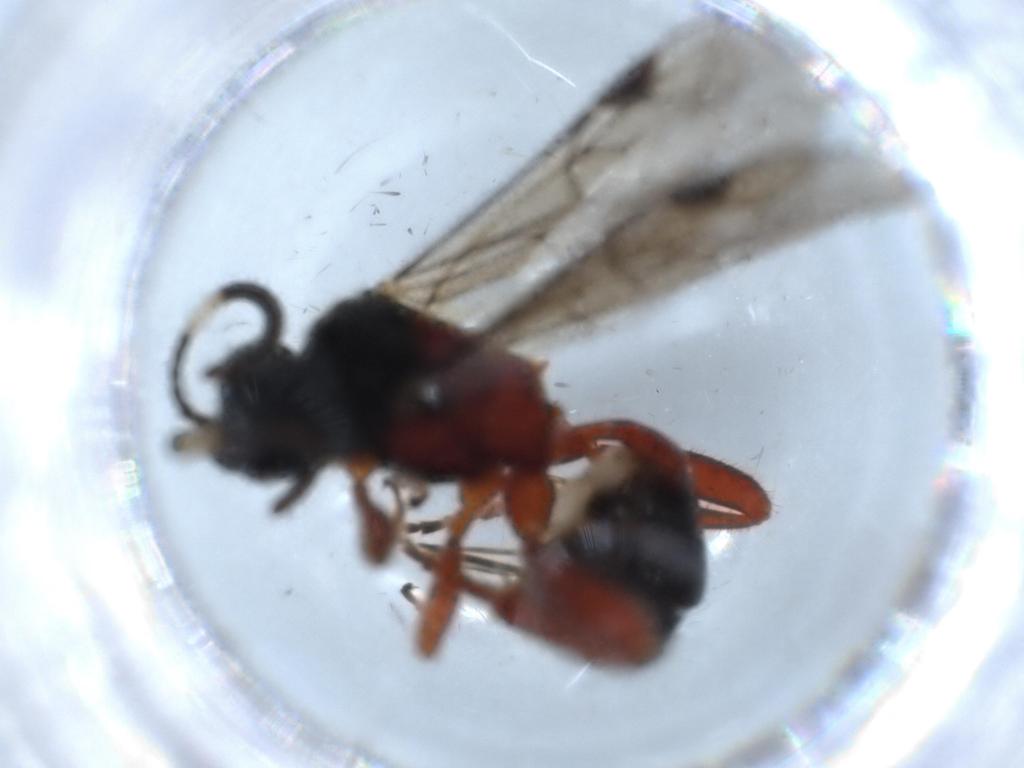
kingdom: Animalia
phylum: Arthropoda
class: Insecta
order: Hymenoptera
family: Ichneumonidae
